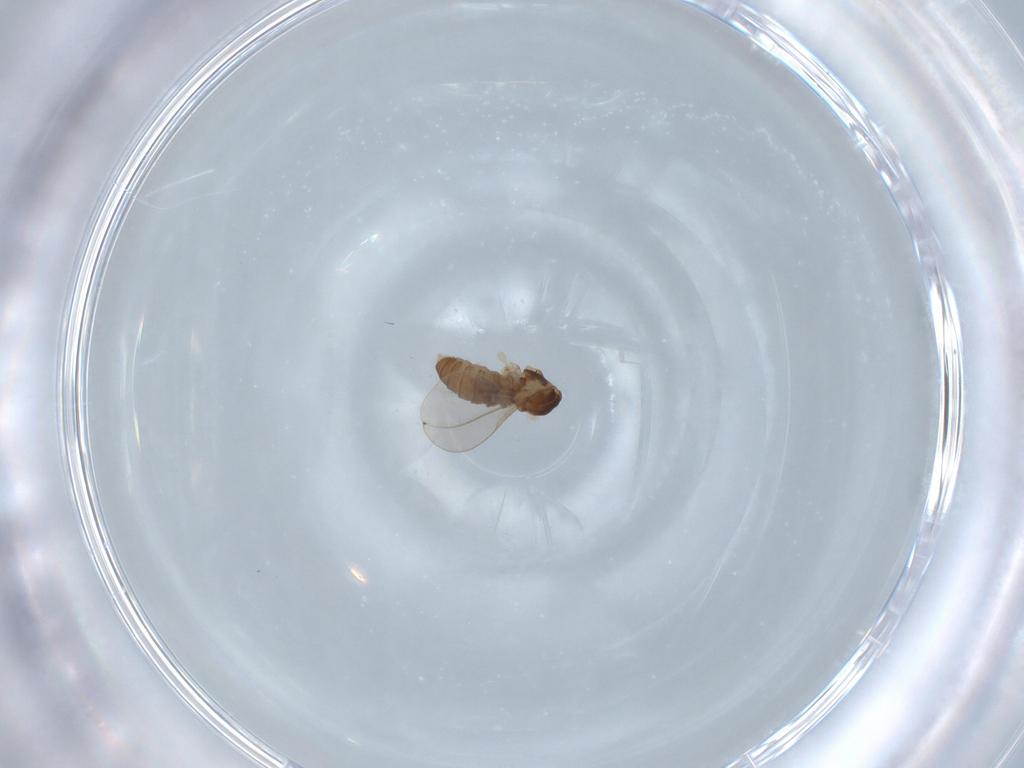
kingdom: Animalia
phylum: Arthropoda
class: Insecta
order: Diptera
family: Cecidomyiidae
